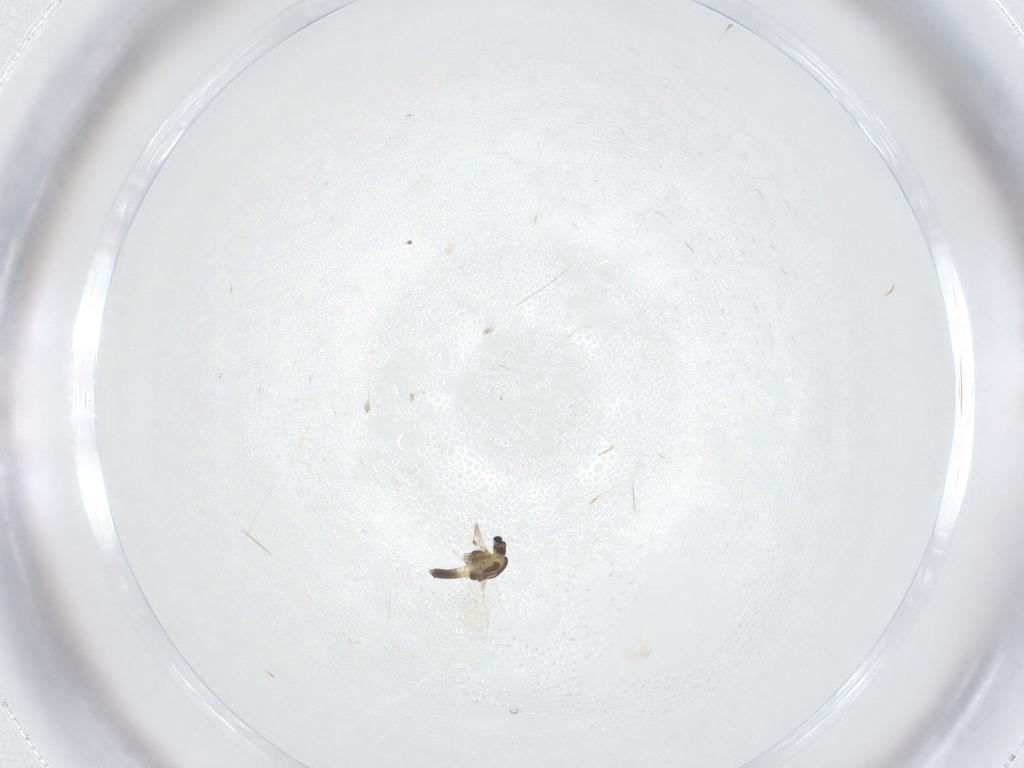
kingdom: Animalia
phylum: Arthropoda
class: Insecta
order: Diptera
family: Chironomidae
